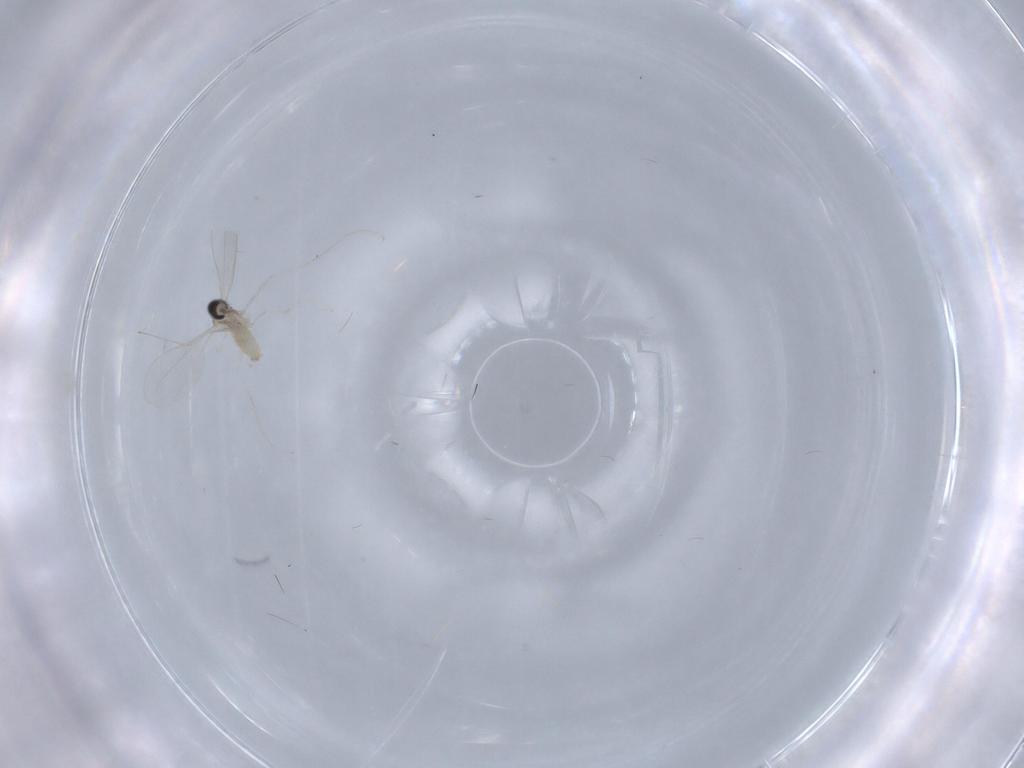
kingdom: Animalia
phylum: Arthropoda
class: Insecta
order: Diptera
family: Cecidomyiidae
